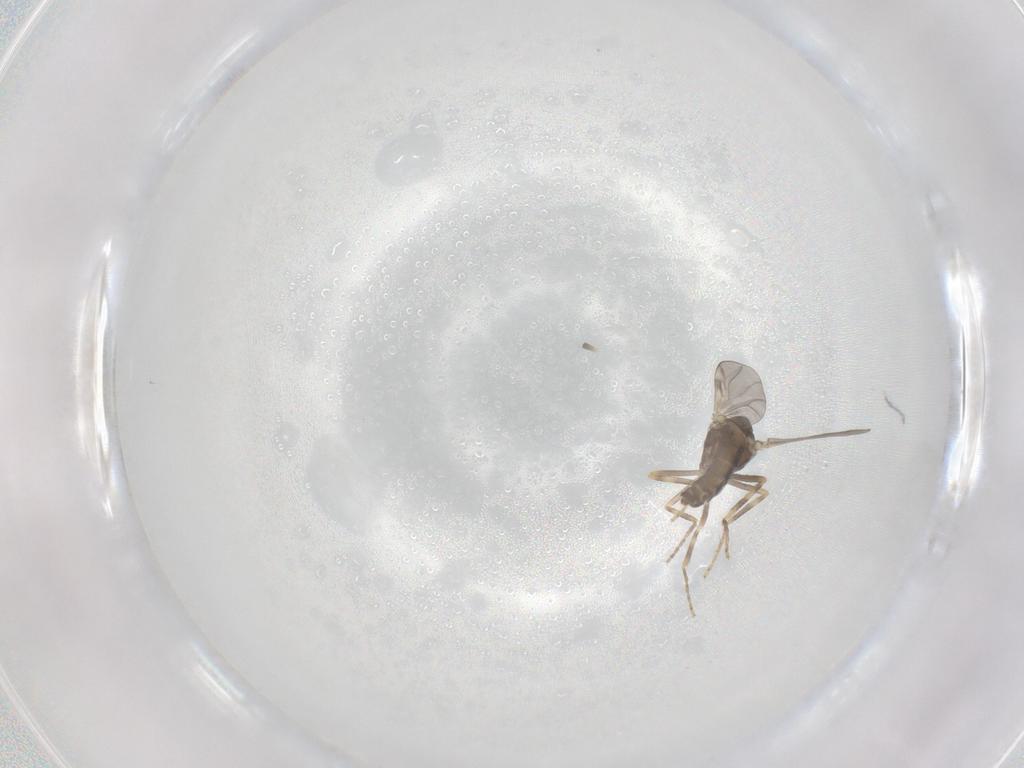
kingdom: Animalia
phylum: Arthropoda
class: Insecta
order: Diptera
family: Ceratopogonidae
